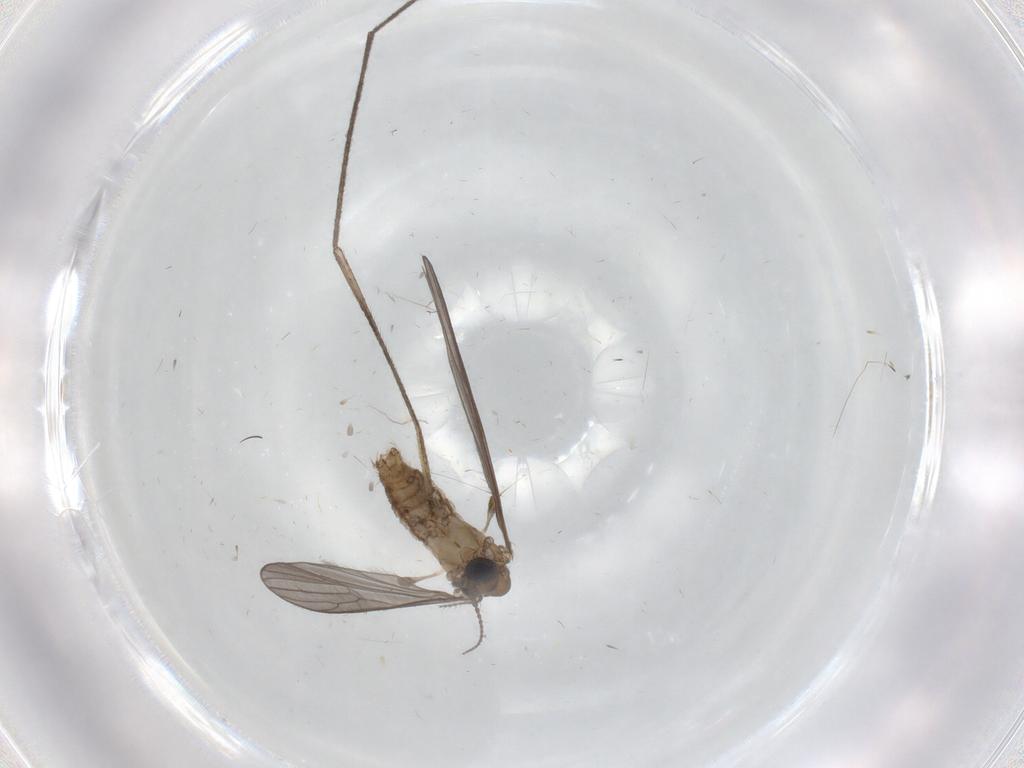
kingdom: Animalia
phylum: Arthropoda
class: Insecta
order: Diptera
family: Limoniidae
